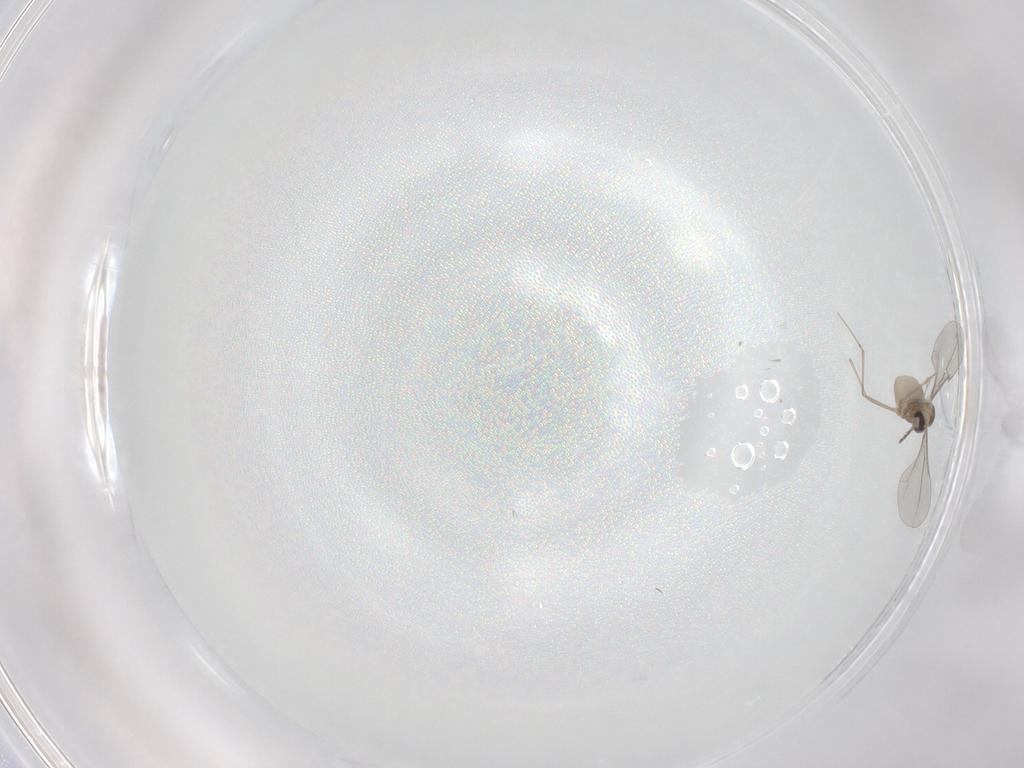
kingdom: Animalia
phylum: Arthropoda
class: Insecta
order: Diptera
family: Cecidomyiidae
